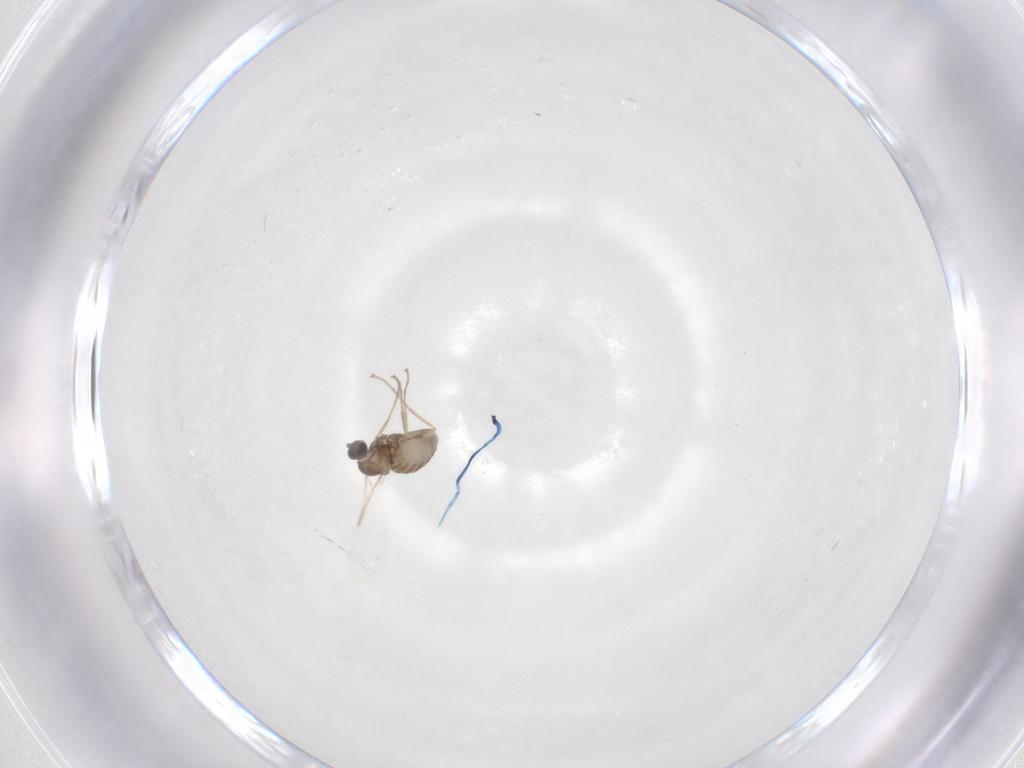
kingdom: Animalia
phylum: Arthropoda
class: Insecta
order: Diptera
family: Cecidomyiidae
